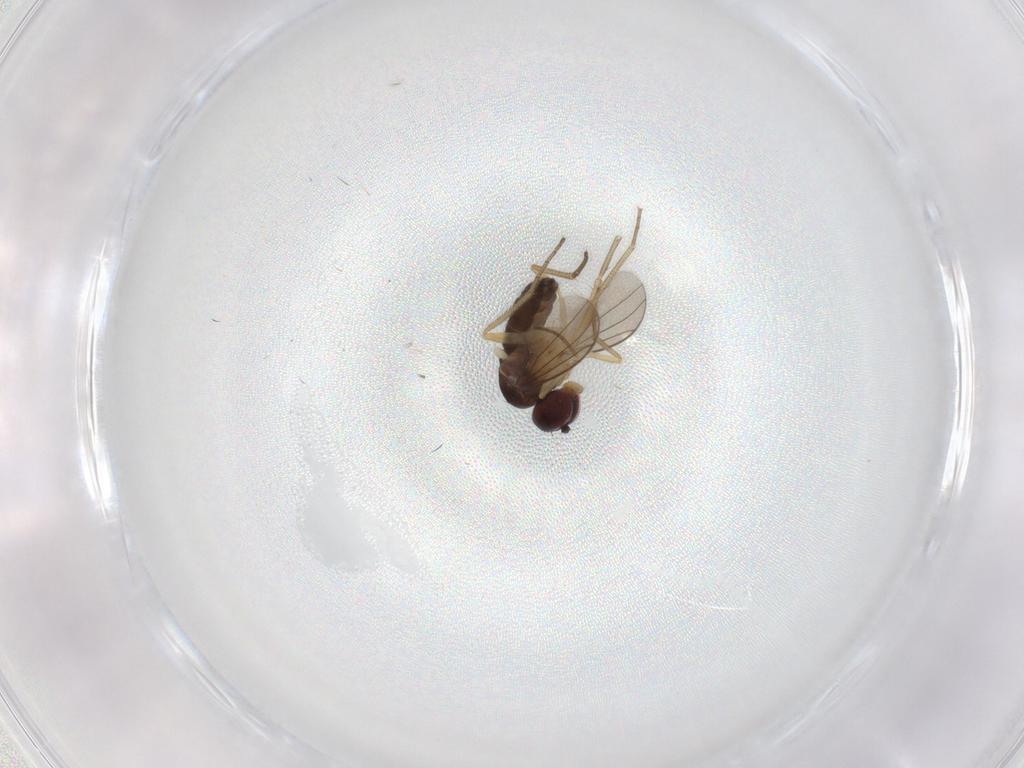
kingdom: Animalia
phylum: Arthropoda
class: Insecta
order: Diptera
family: Dolichopodidae
